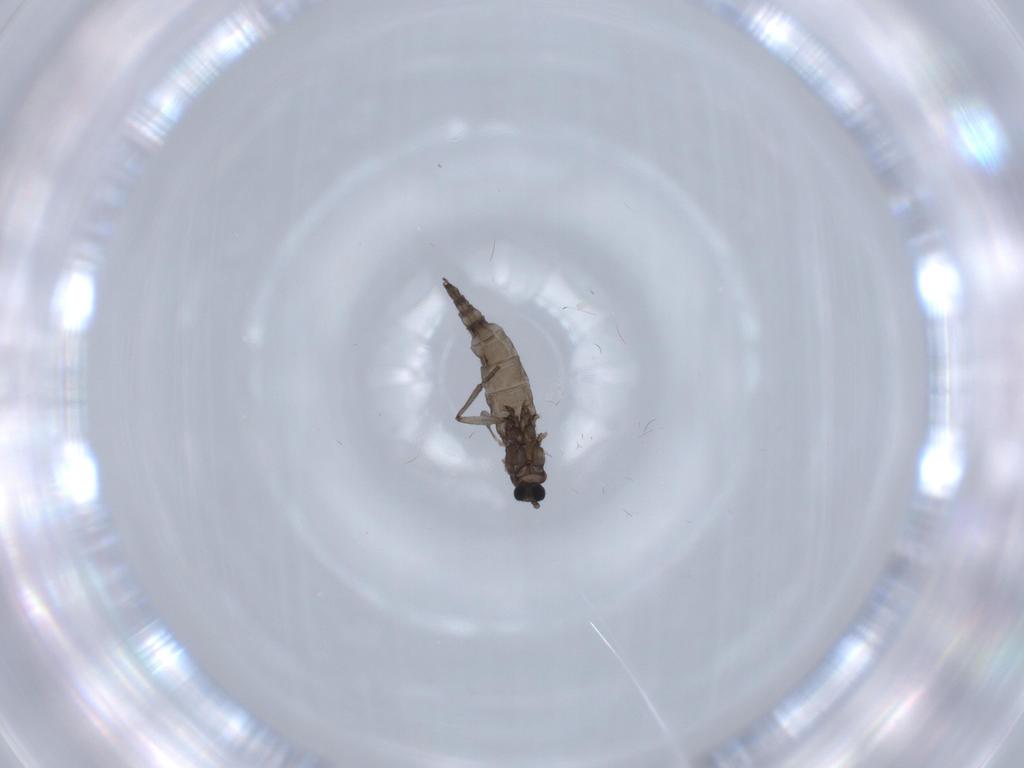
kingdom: Animalia
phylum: Arthropoda
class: Insecta
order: Diptera
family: Sciaridae
